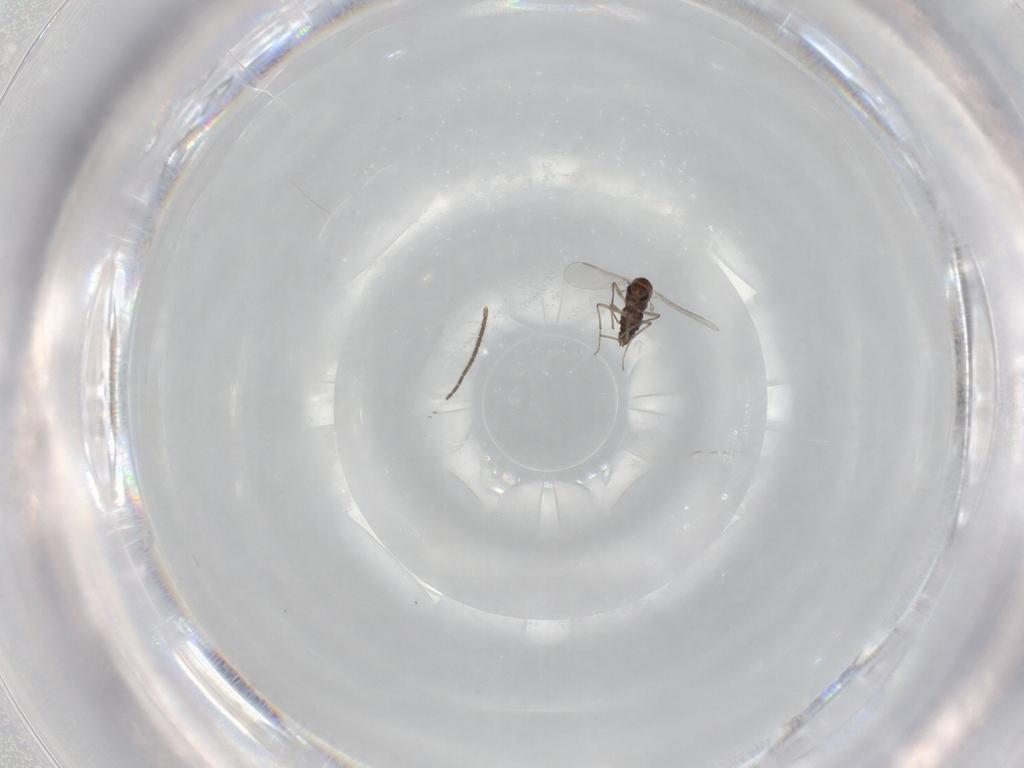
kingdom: Animalia
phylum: Arthropoda
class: Insecta
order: Diptera
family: Chironomidae
